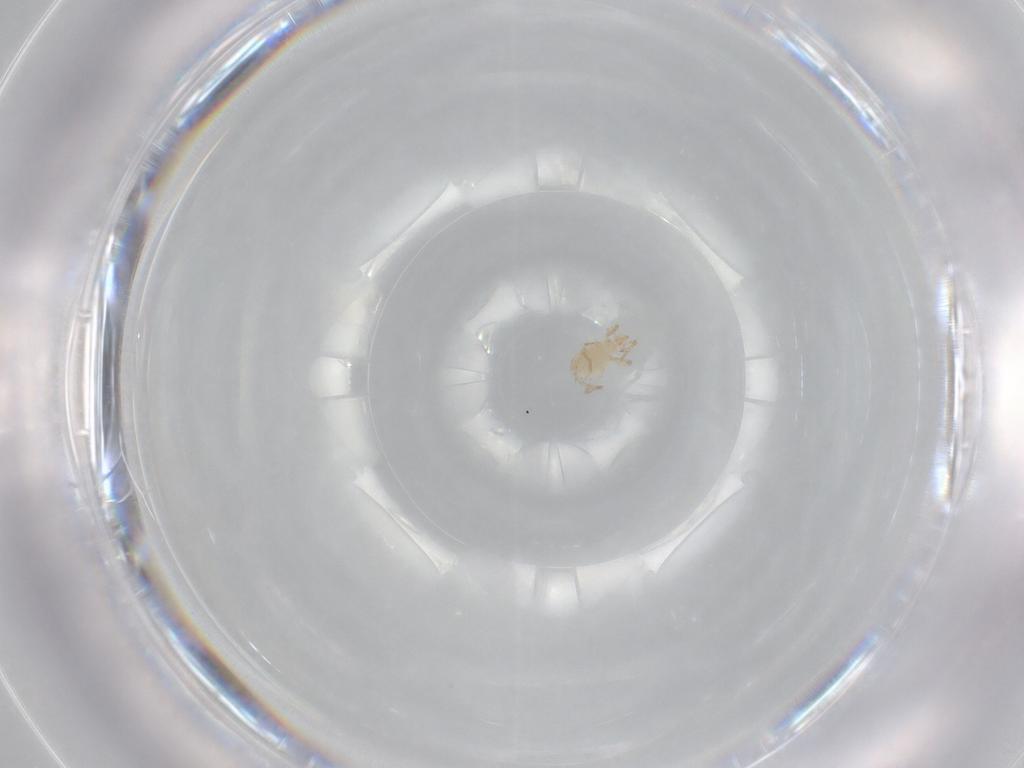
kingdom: Animalia
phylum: Arthropoda
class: Arachnida
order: Trombidiformes
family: Erythraeidae
